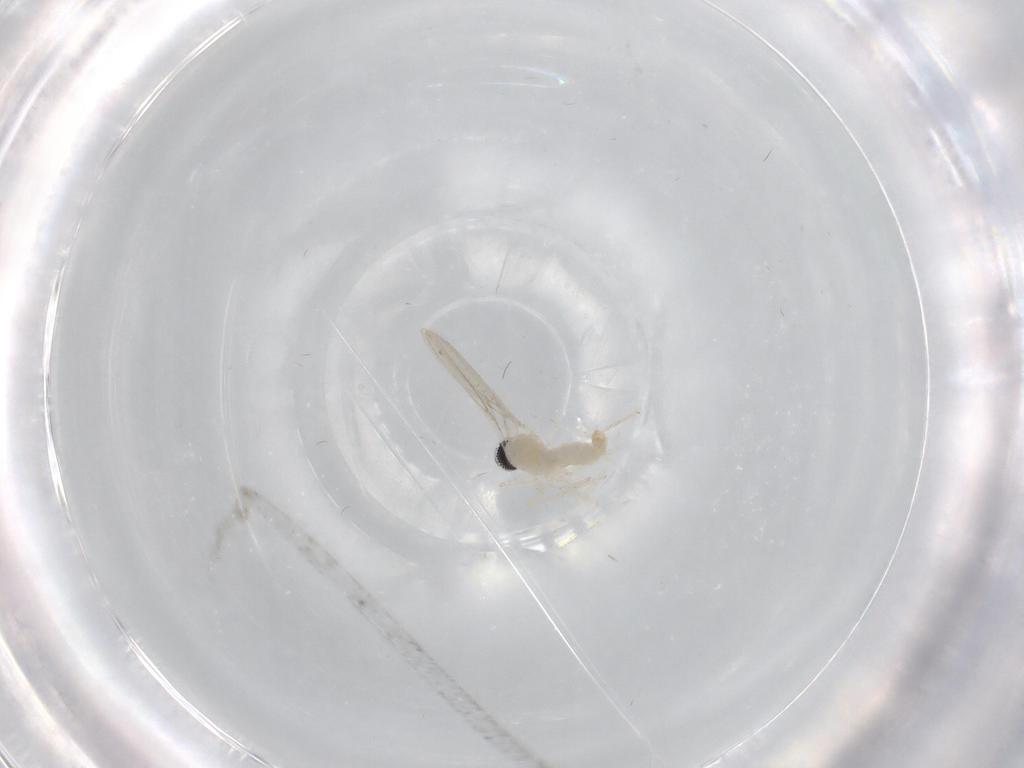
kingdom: Animalia
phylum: Arthropoda
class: Insecta
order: Diptera
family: Cecidomyiidae
